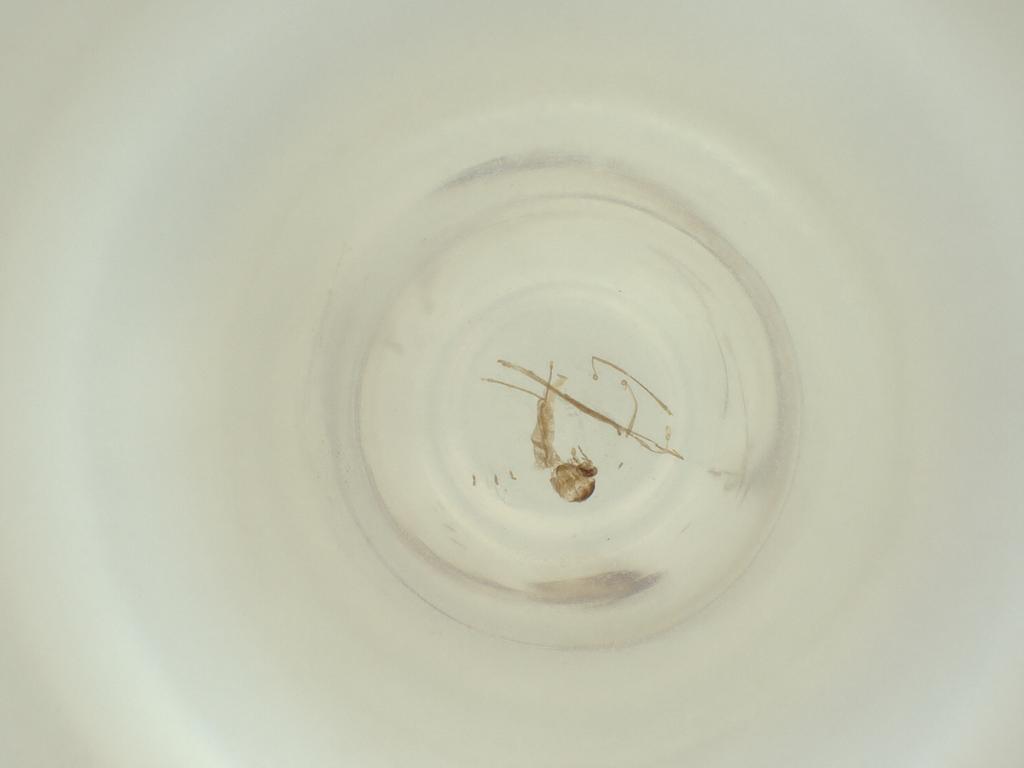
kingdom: Animalia
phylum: Arthropoda
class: Insecta
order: Diptera
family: Cecidomyiidae
